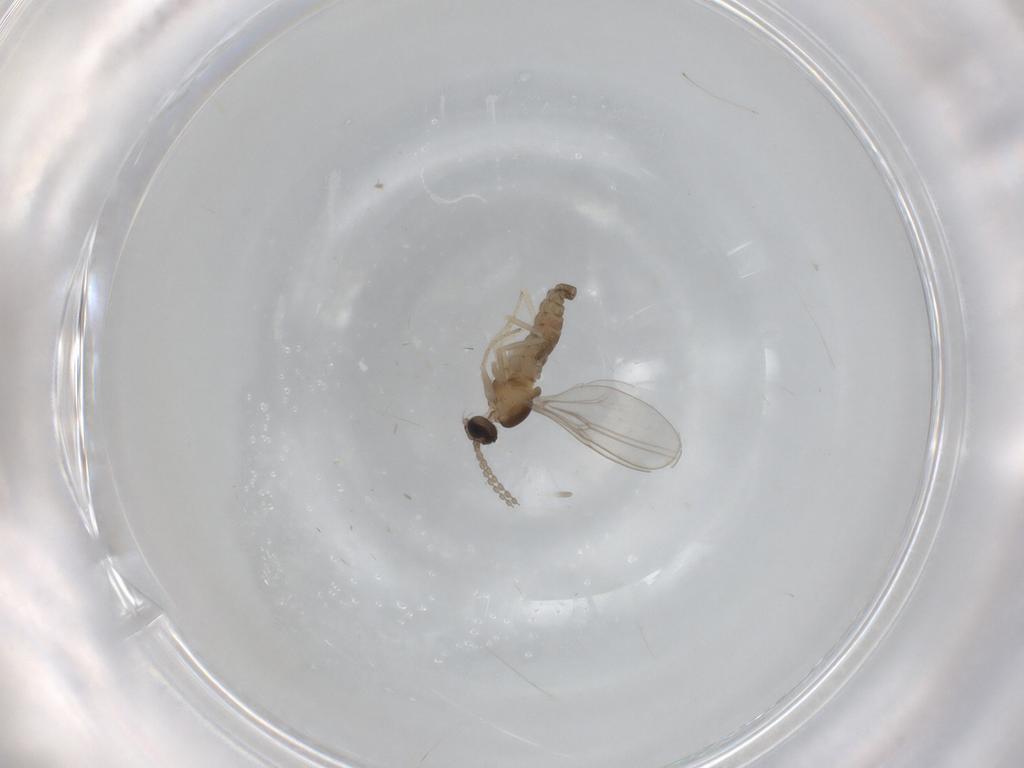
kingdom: Animalia
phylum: Arthropoda
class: Insecta
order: Diptera
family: Cecidomyiidae
